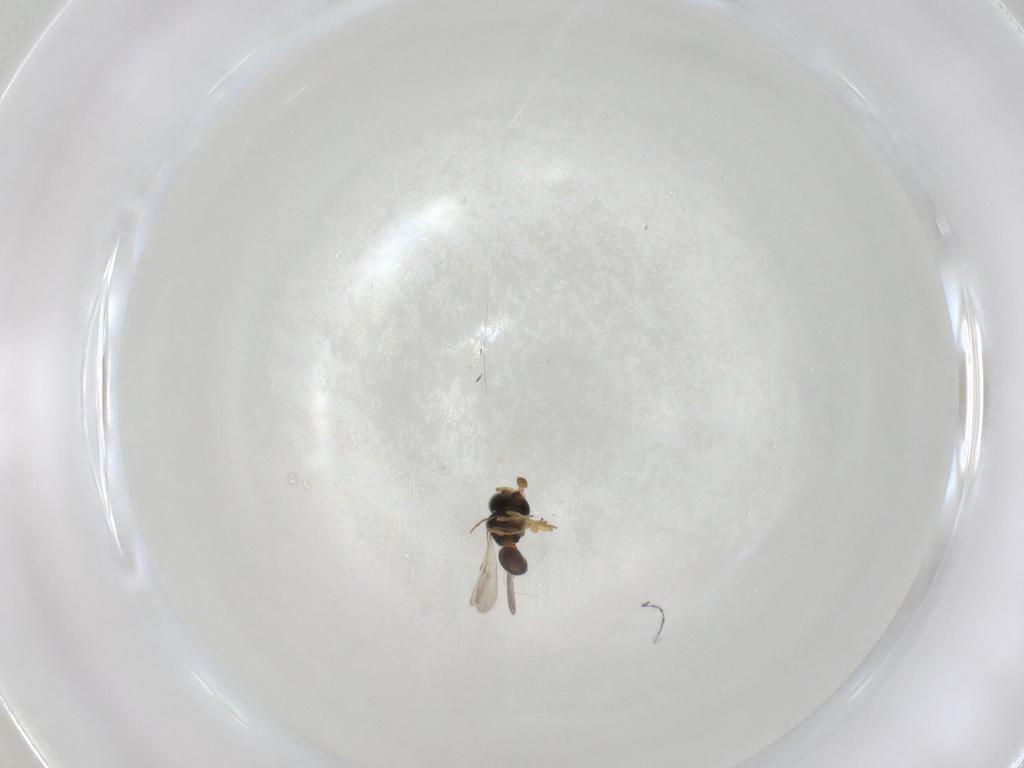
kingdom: Animalia
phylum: Arthropoda
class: Insecta
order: Hymenoptera
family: Scelionidae
